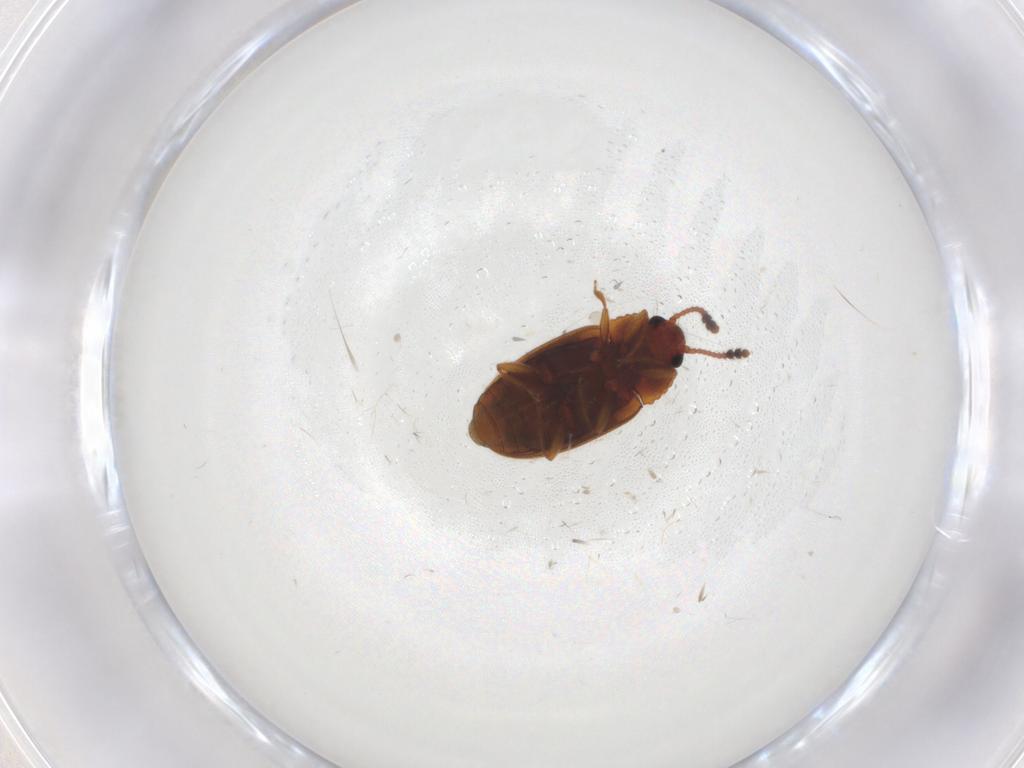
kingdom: Animalia
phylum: Arthropoda
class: Insecta
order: Coleoptera
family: Erotylidae
